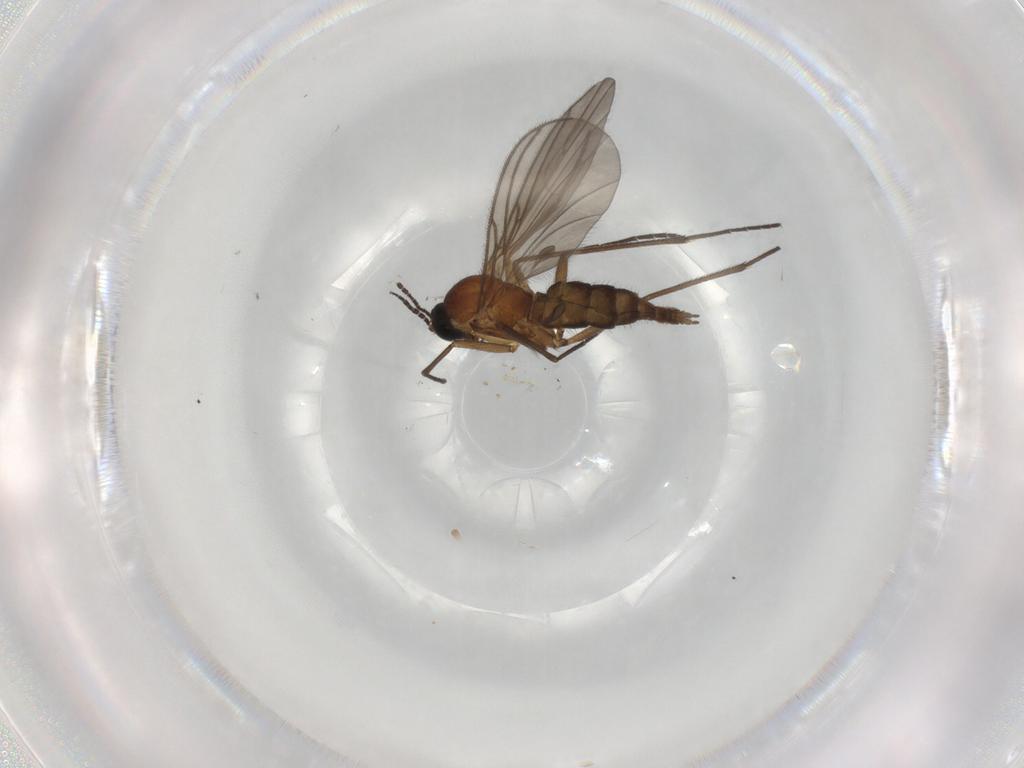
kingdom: Animalia
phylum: Arthropoda
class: Insecta
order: Diptera
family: Sciaridae
